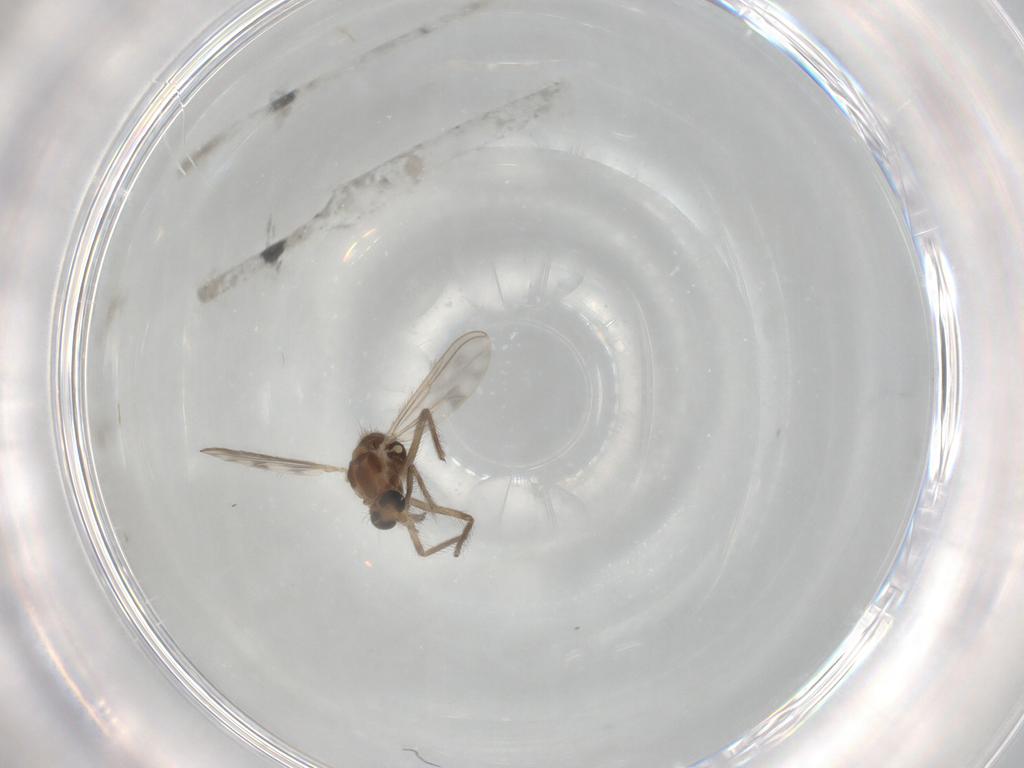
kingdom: Animalia
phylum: Arthropoda
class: Insecta
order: Diptera
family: Chironomidae
